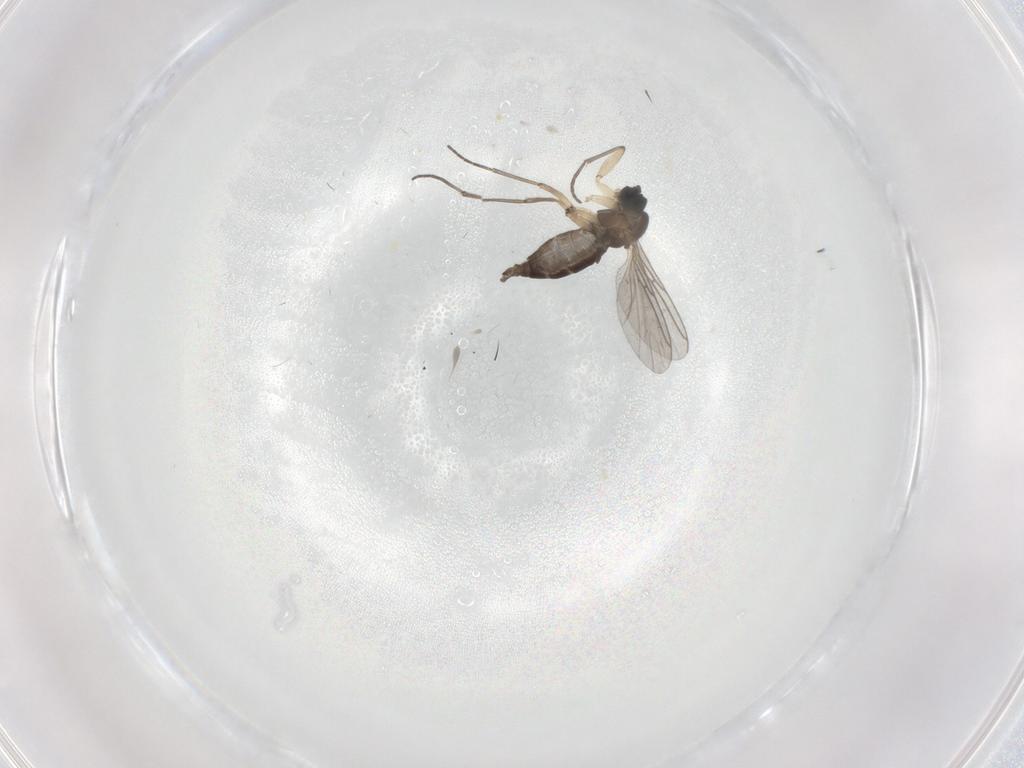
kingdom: Animalia
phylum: Arthropoda
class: Insecta
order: Diptera
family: Sciaridae
